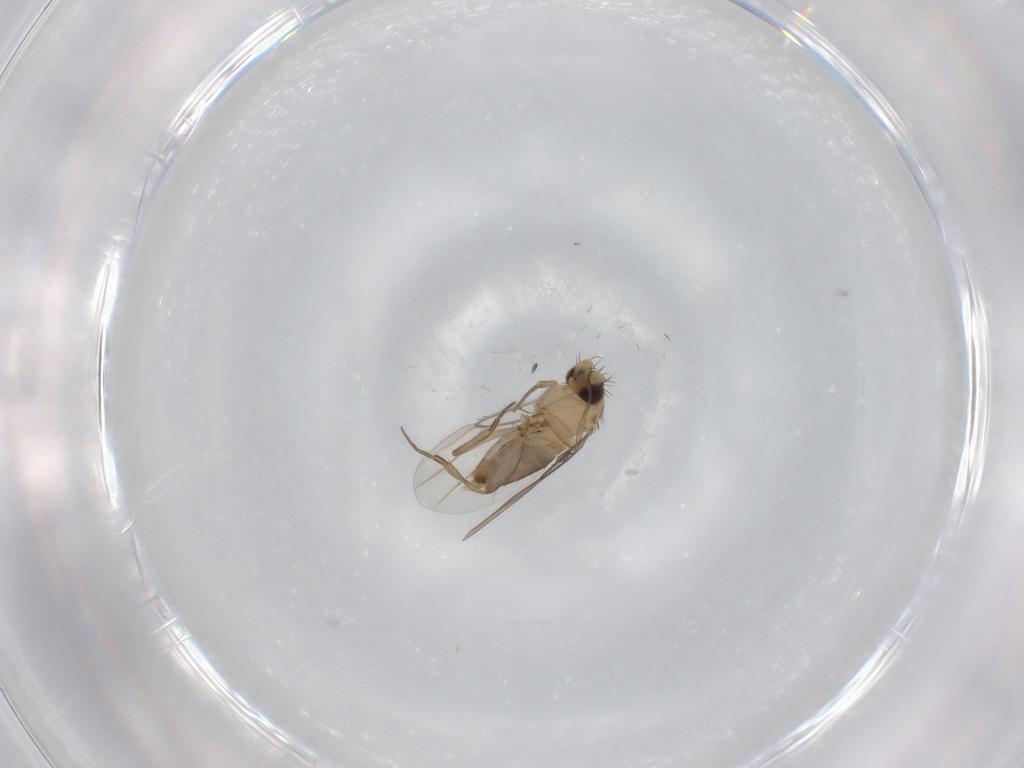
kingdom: Animalia
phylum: Arthropoda
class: Insecta
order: Diptera
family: Phoridae
